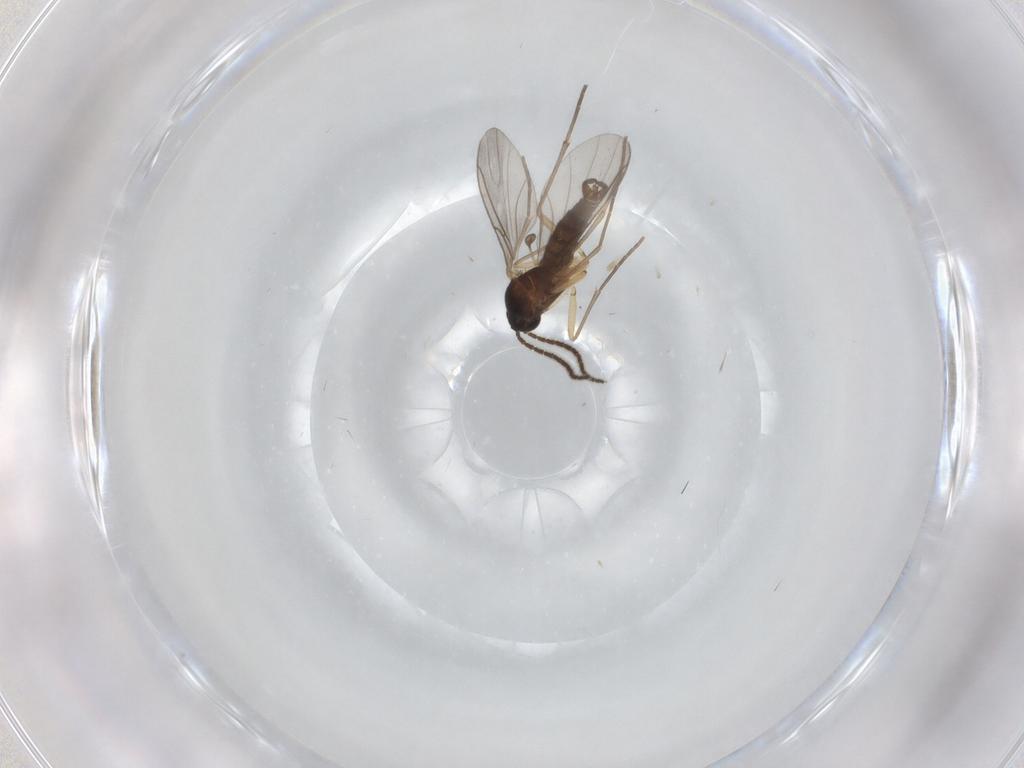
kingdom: Animalia
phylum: Arthropoda
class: Insecta
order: Diptera
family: Sciaridae
